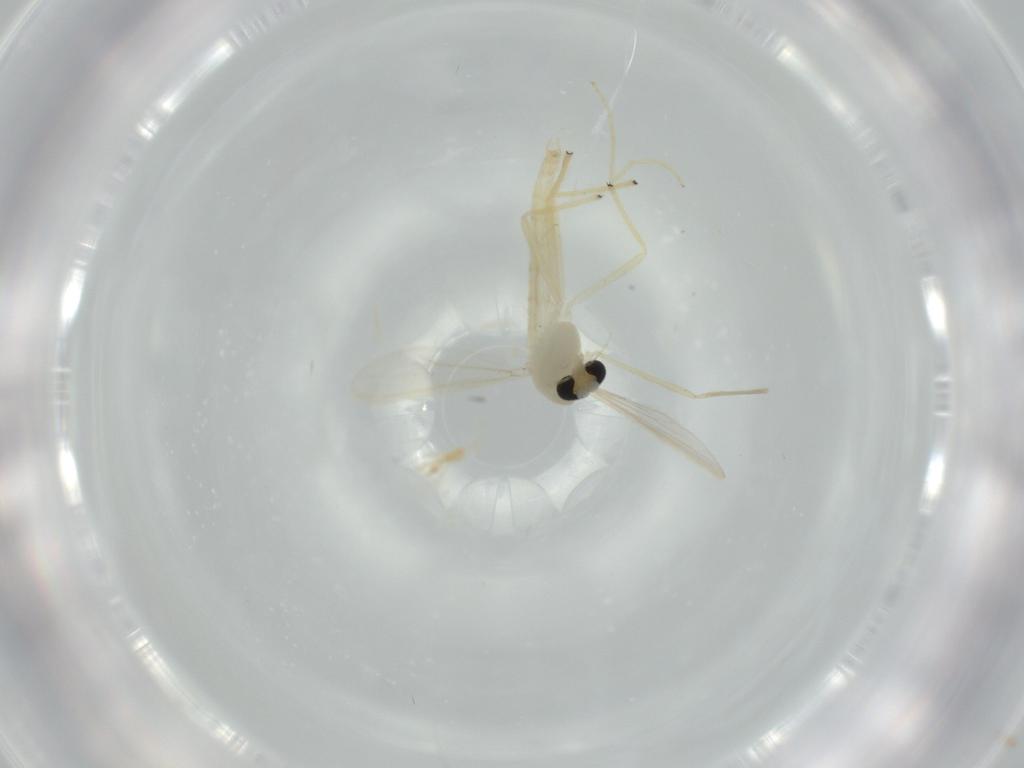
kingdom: Animalia
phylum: Arthropoda
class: Insecta
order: Diptera
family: Chironomidae
